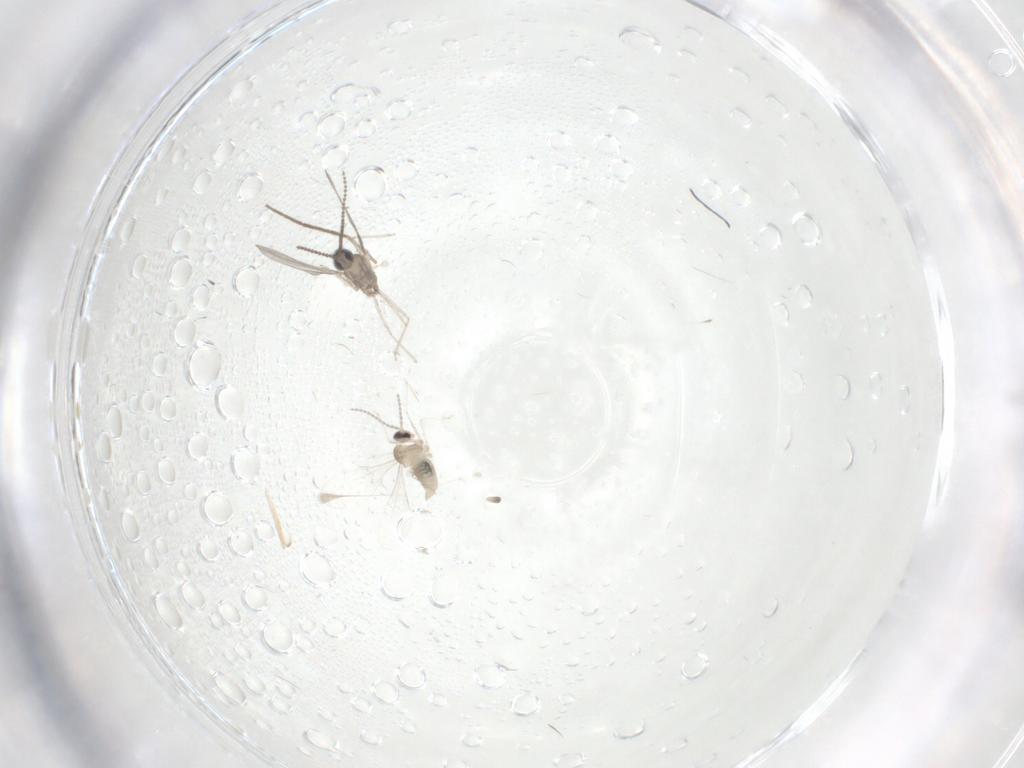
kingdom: Animalia
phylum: Arthropoda
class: Insecta
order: Diptera
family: Cecidomyiidae
